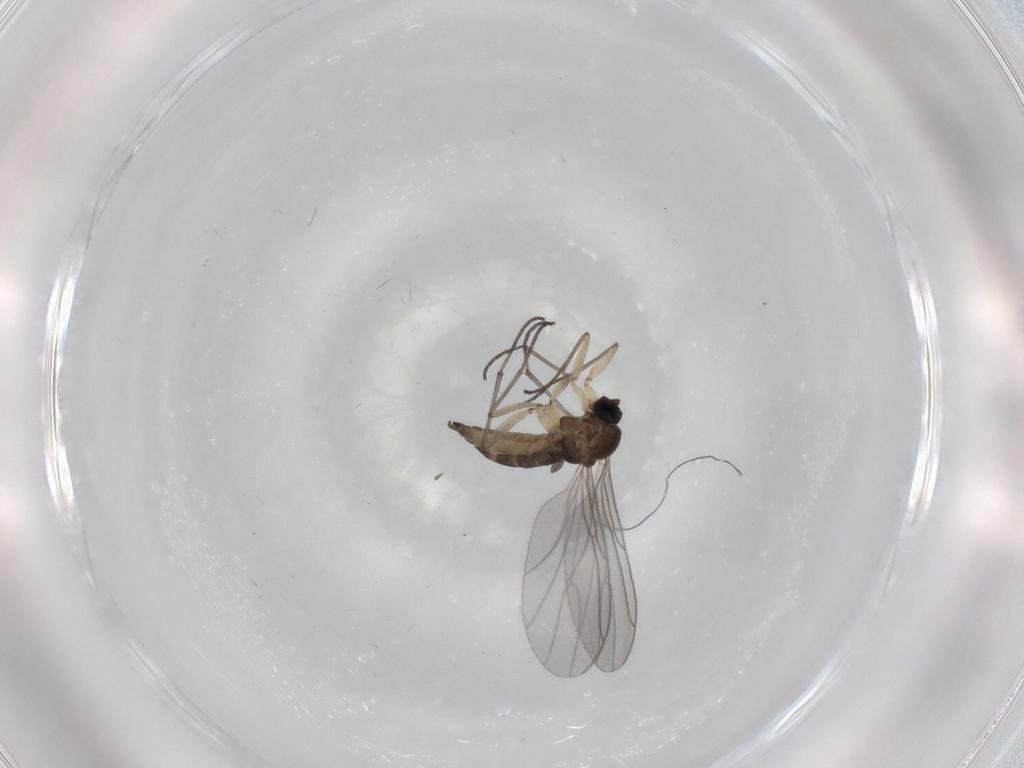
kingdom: Animalia
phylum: Arthropoda
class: Insecta
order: Diptera
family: Sciaridae
